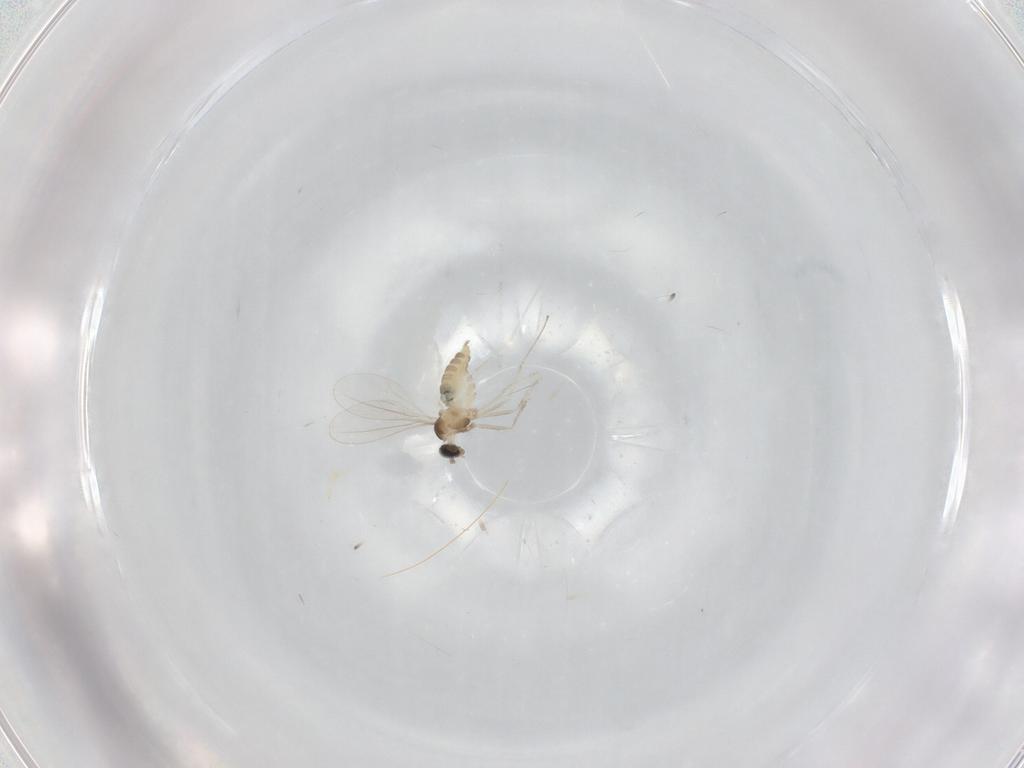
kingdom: Animalia
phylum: Arthropoda
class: Insecta
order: Diptera
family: Cecidomyiidae
